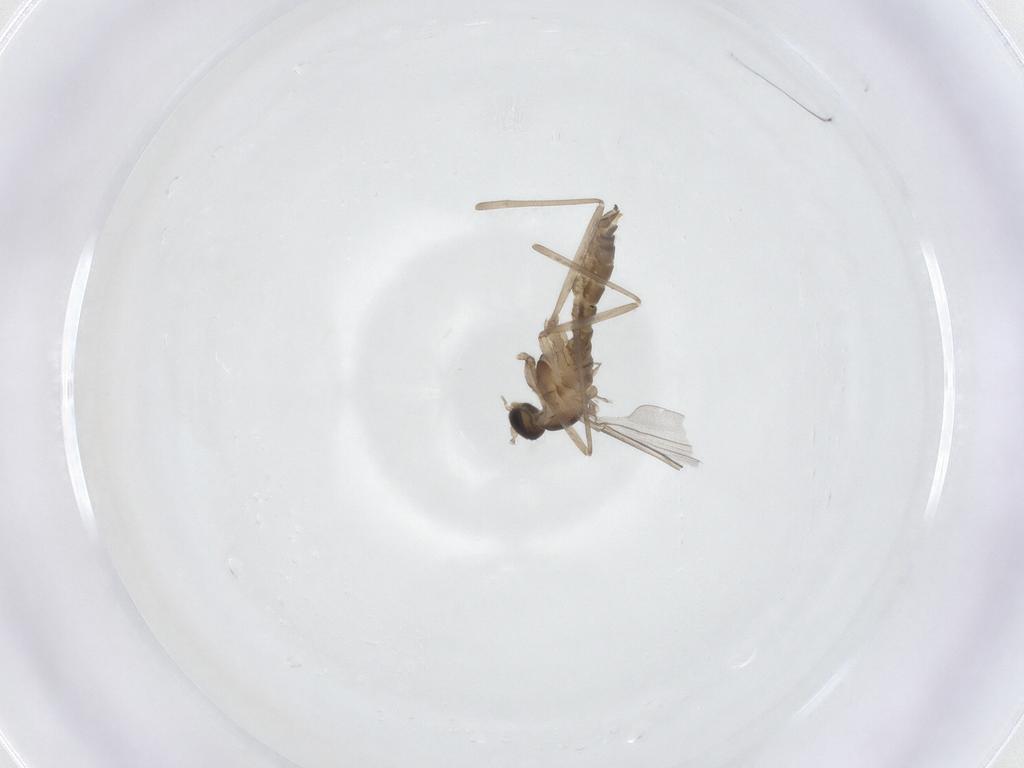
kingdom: Animalia
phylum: Arthropoda
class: Insecta
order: Diptera
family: Cecidomyiidae
